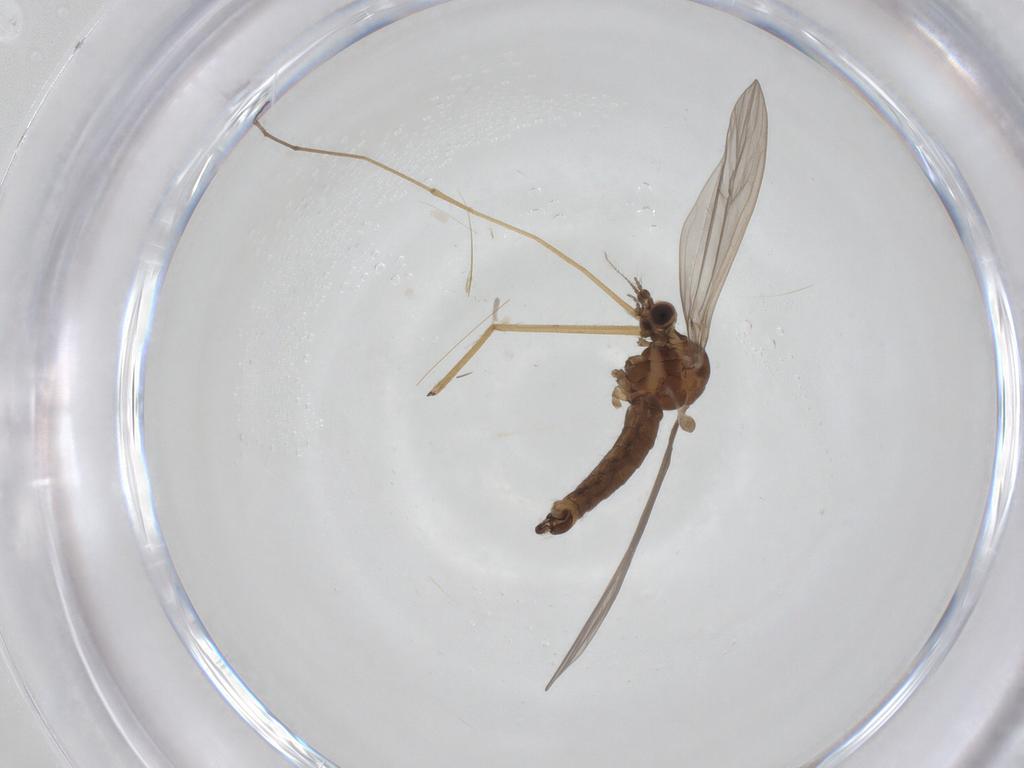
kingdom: Animalia
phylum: Arthropoda
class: Insecta
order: Diptera
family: Limoniidae
